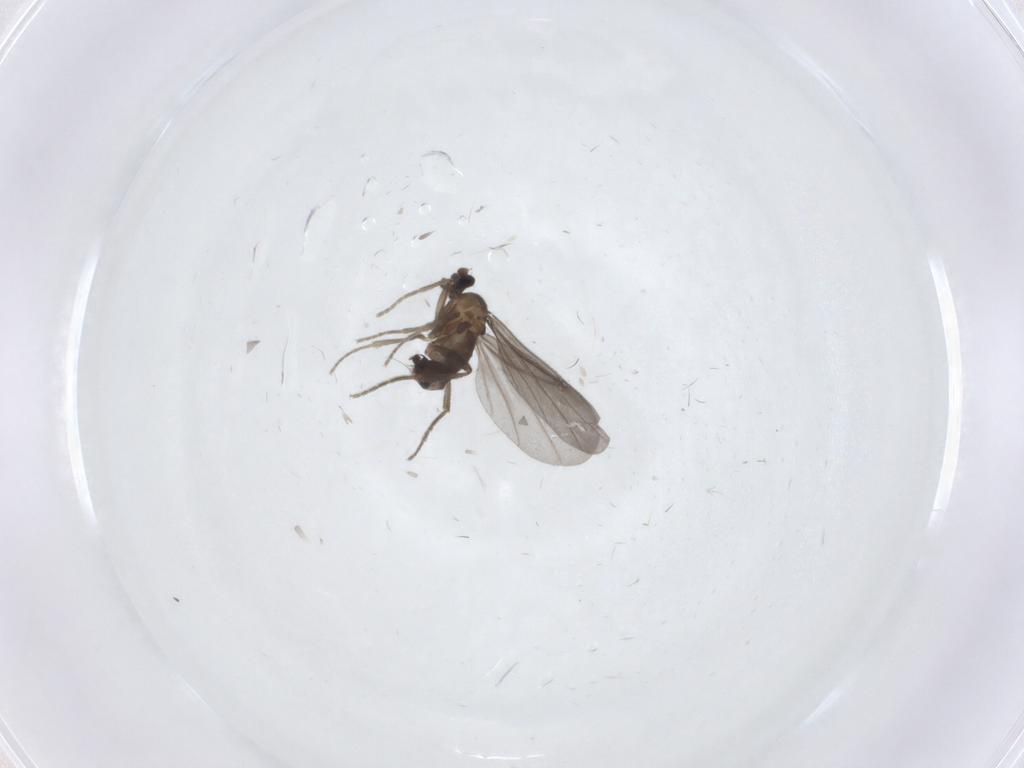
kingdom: Animalia
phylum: Arthropoda
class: Insecta
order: Diptera
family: Phoridae
